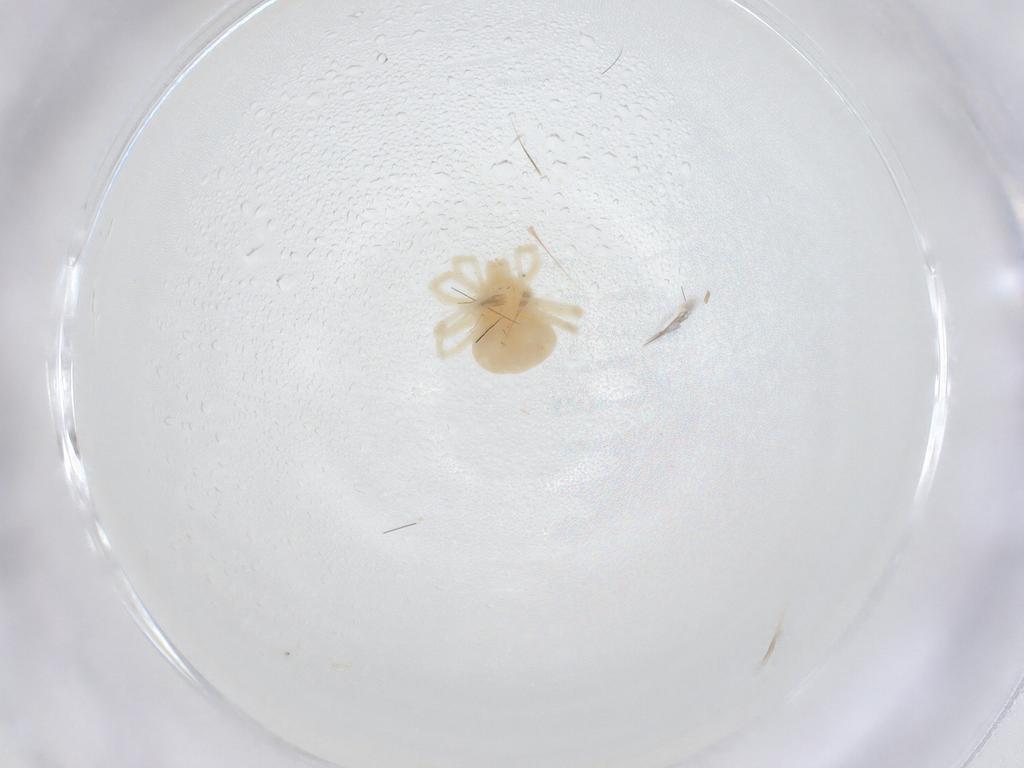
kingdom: Animalia
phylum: Arthropoda
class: Arachnida
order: Trombidiformes
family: Anystidae
